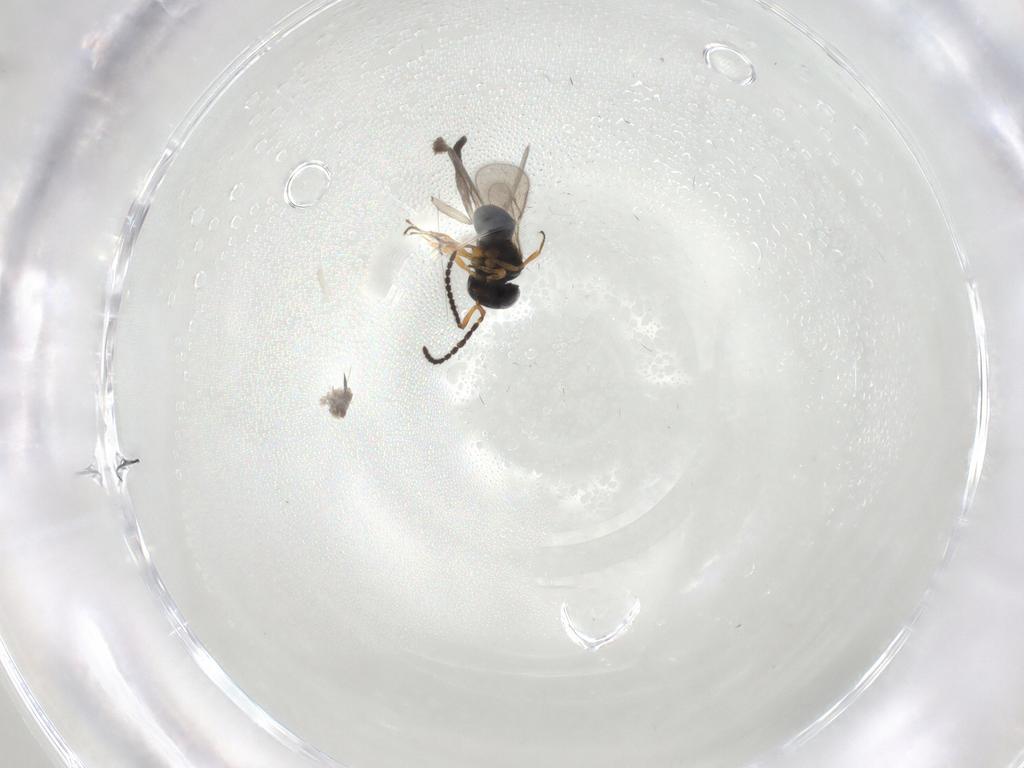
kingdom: Animalia
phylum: Arthropoda
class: Insecta
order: Hymenoptera
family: Scelionidae
